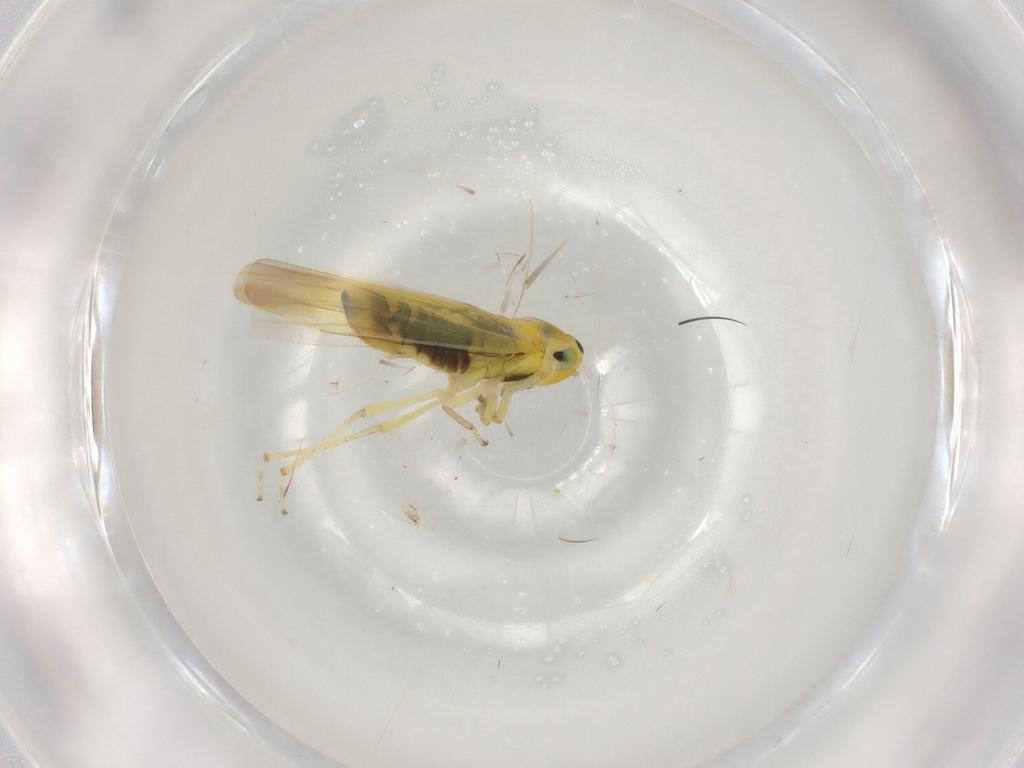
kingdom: Animalia
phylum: Arthropoda
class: Insecta
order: Hemiptera
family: Cicadellidae
